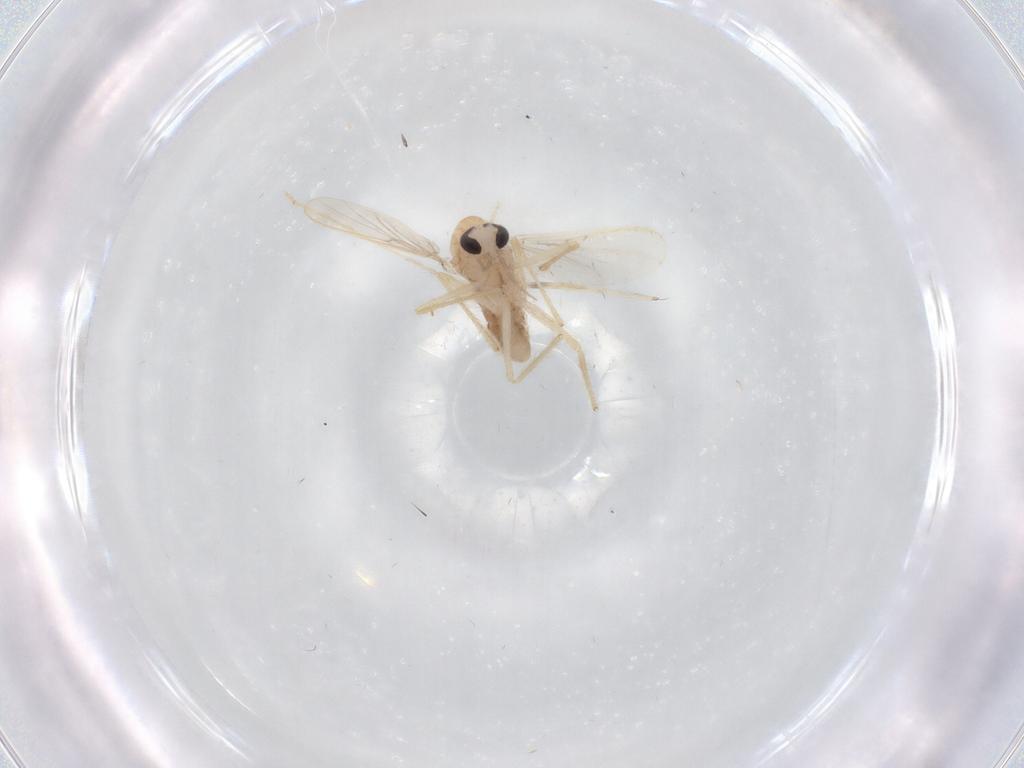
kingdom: Animalia
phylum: Arthropoda
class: Insecta
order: Diptera
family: Chironomidae
